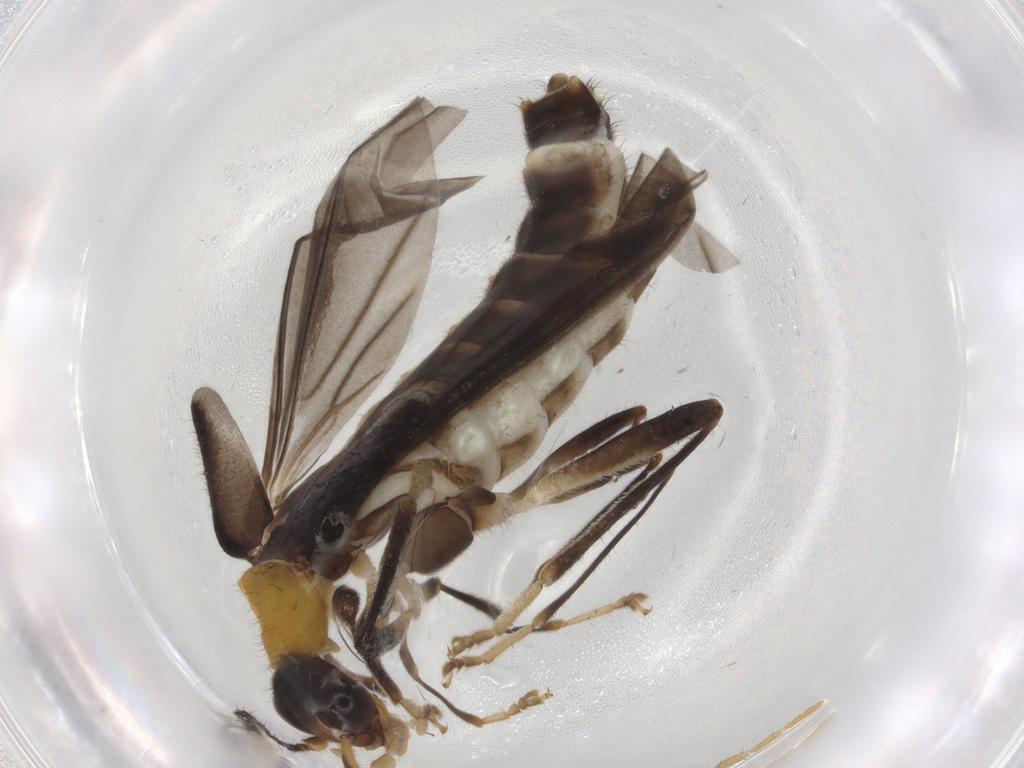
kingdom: Animalia
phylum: Arthropoda
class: Insecta
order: Coleoptera
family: Cantharidae
